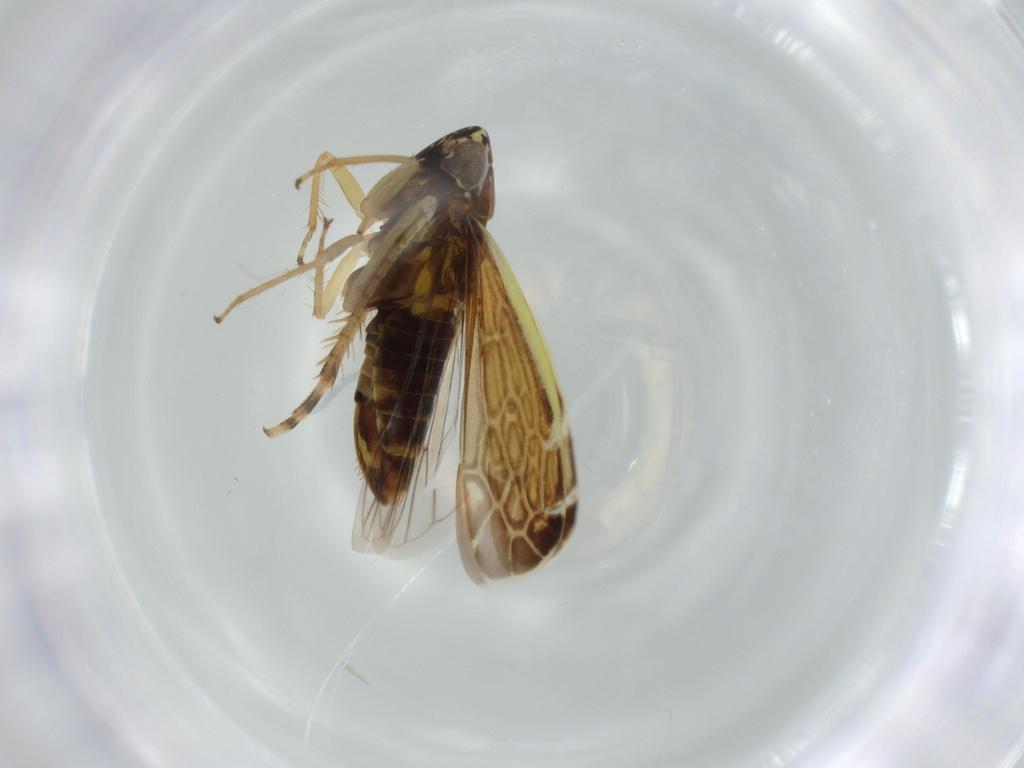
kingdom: Animalia
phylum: Arthropoda
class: Insecta
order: Hemiptera
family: Cicadellidae
